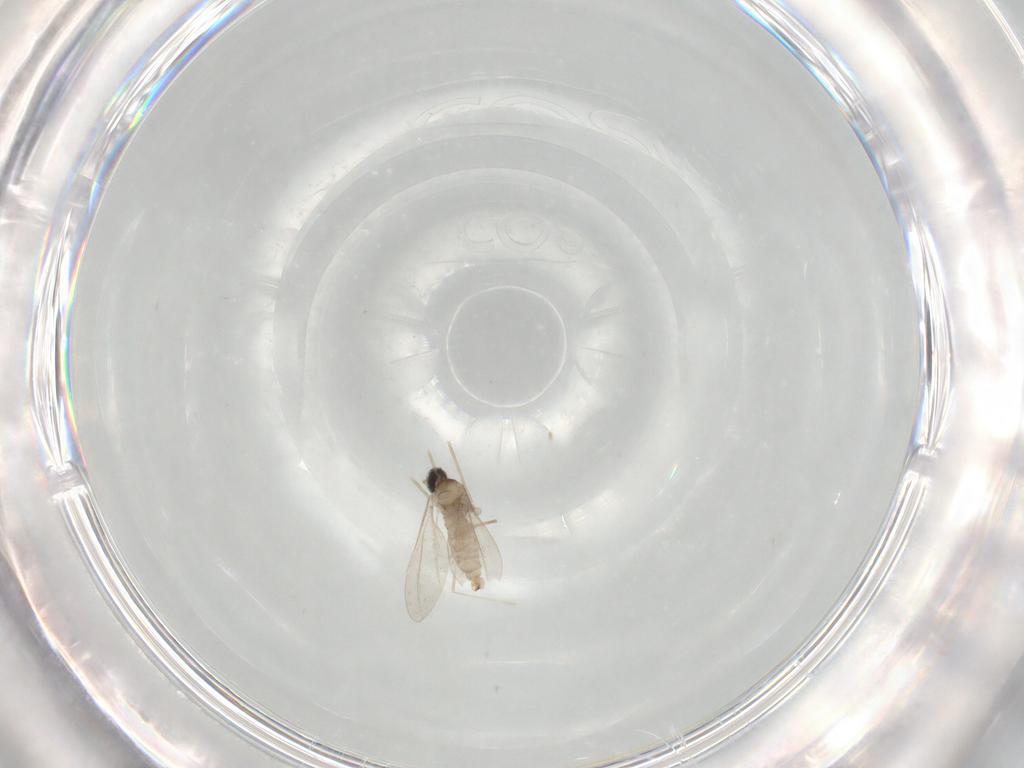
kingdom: Animalia
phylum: Arthropoda
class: Insecta
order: Diptera
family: Cecidomyiidae
